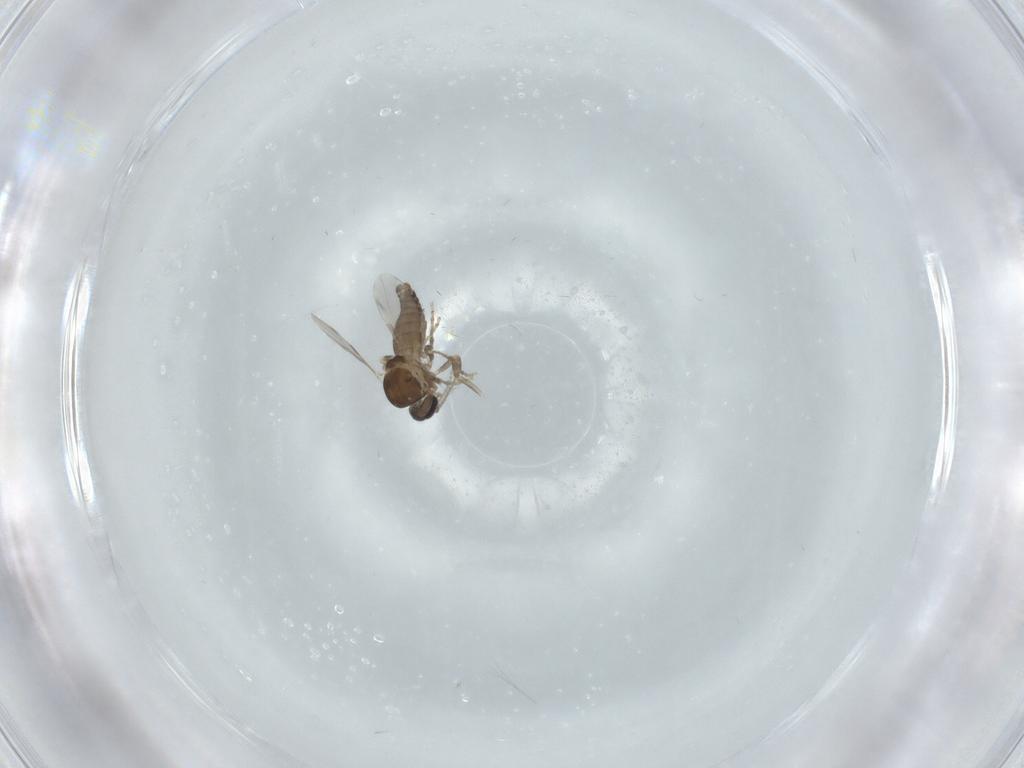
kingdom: Animalia
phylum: Arthropoda
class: Insecta
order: Diptera
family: Ceratopogonidae
